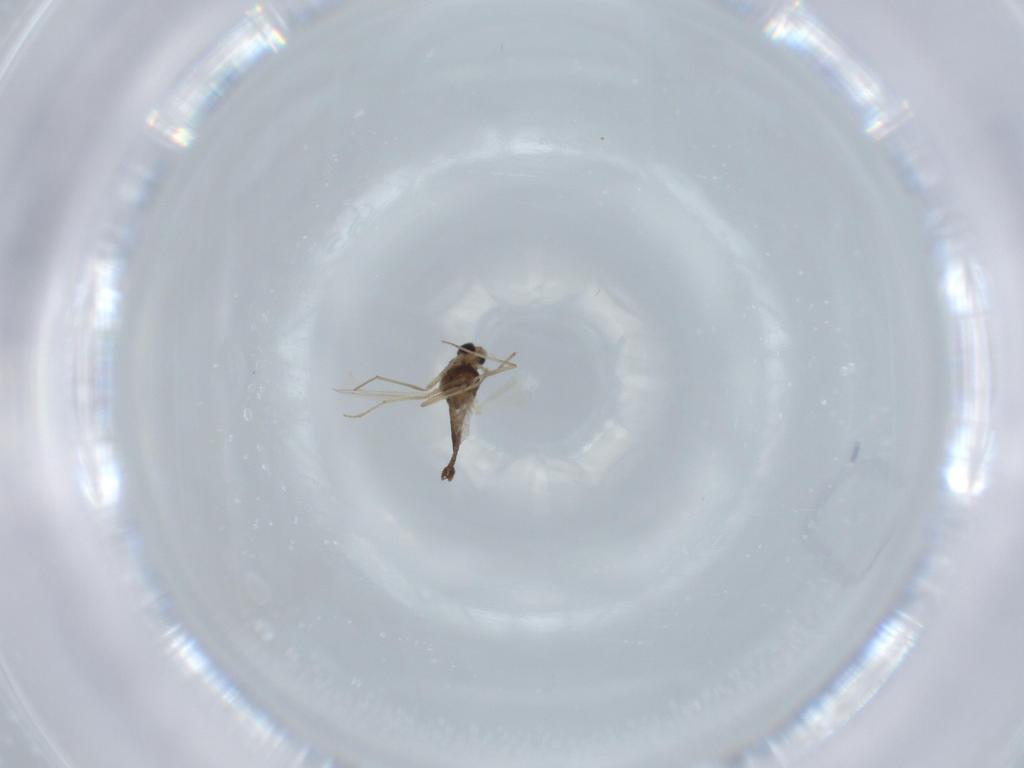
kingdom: Animalia
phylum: Arthropoda
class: Insecta
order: Diptera
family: Chironomidae
